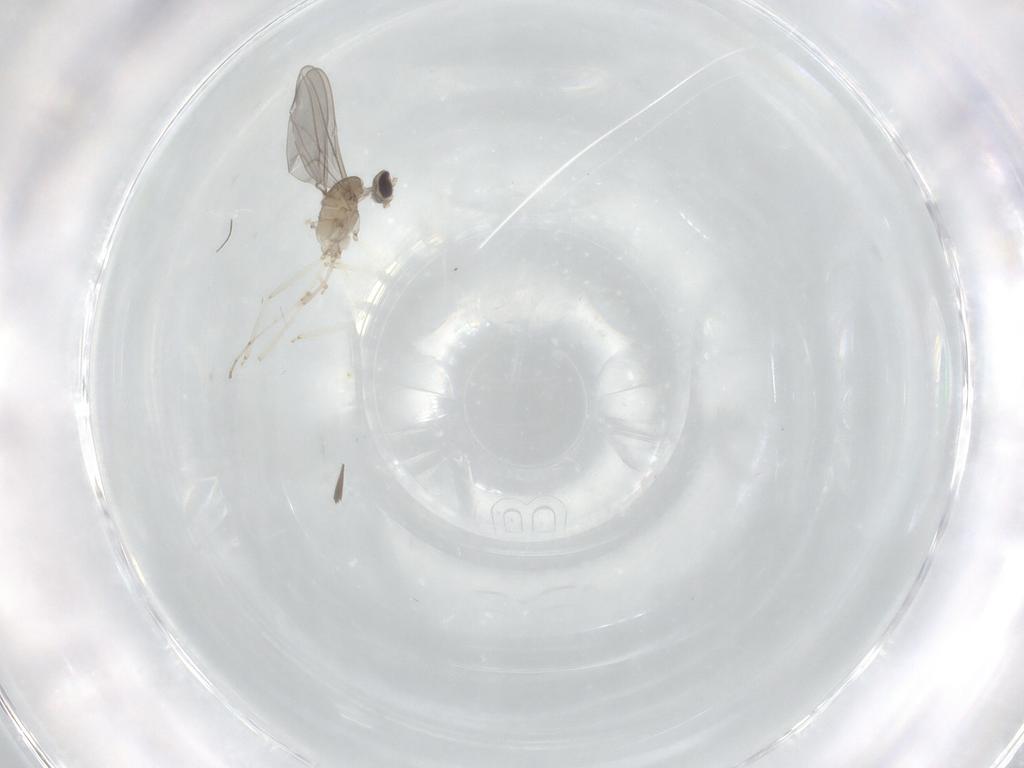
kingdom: Animalia
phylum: Arthropoda
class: Insecta
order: Diptera
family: Cecidomyiidae
